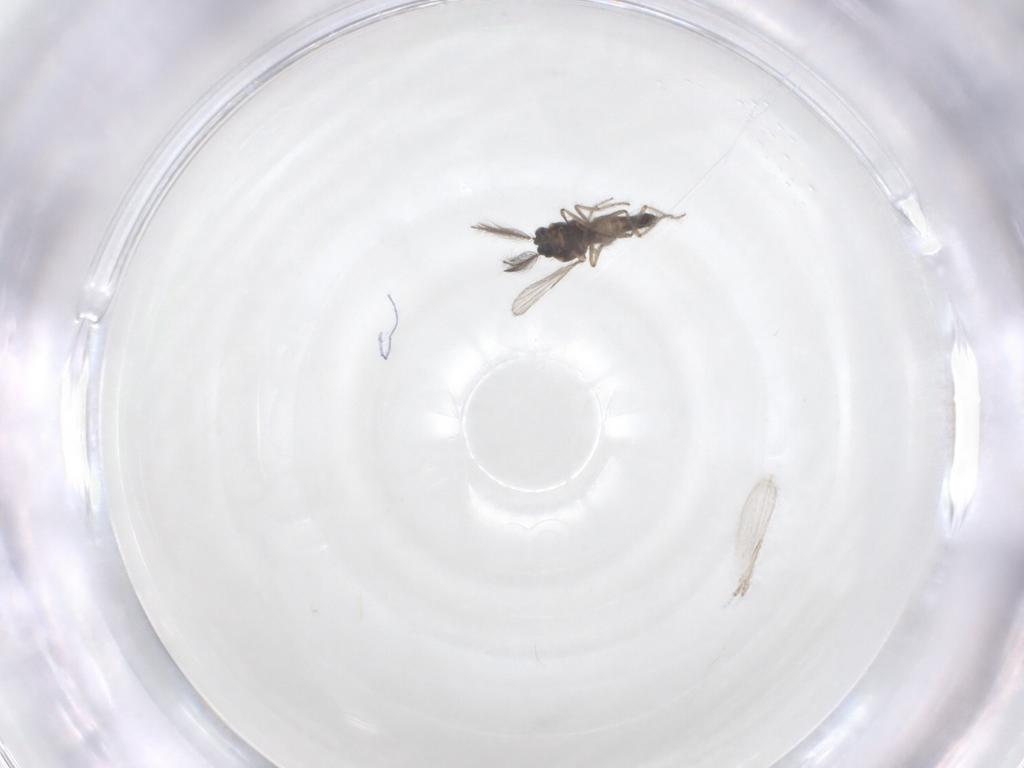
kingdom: Animalia
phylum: Arthropoda
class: Insecta
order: Diptera
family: Ceratopogonidae
